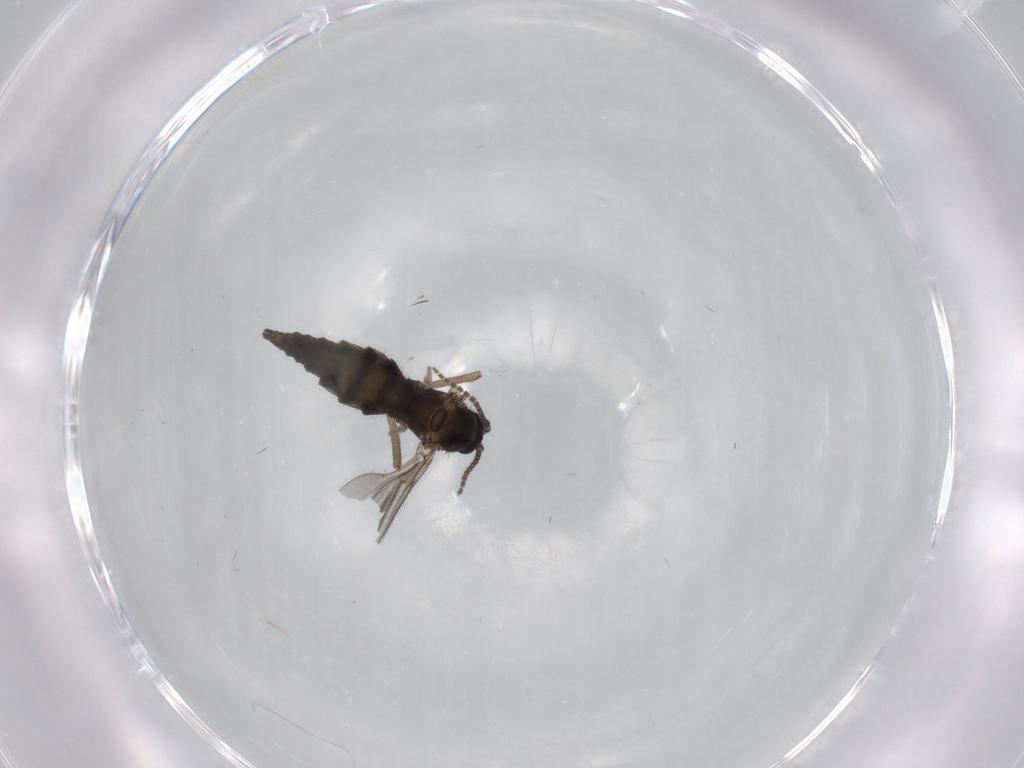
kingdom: Animalia
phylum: Arthropoda
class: Insecta
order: Diptera
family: Sciaridae
